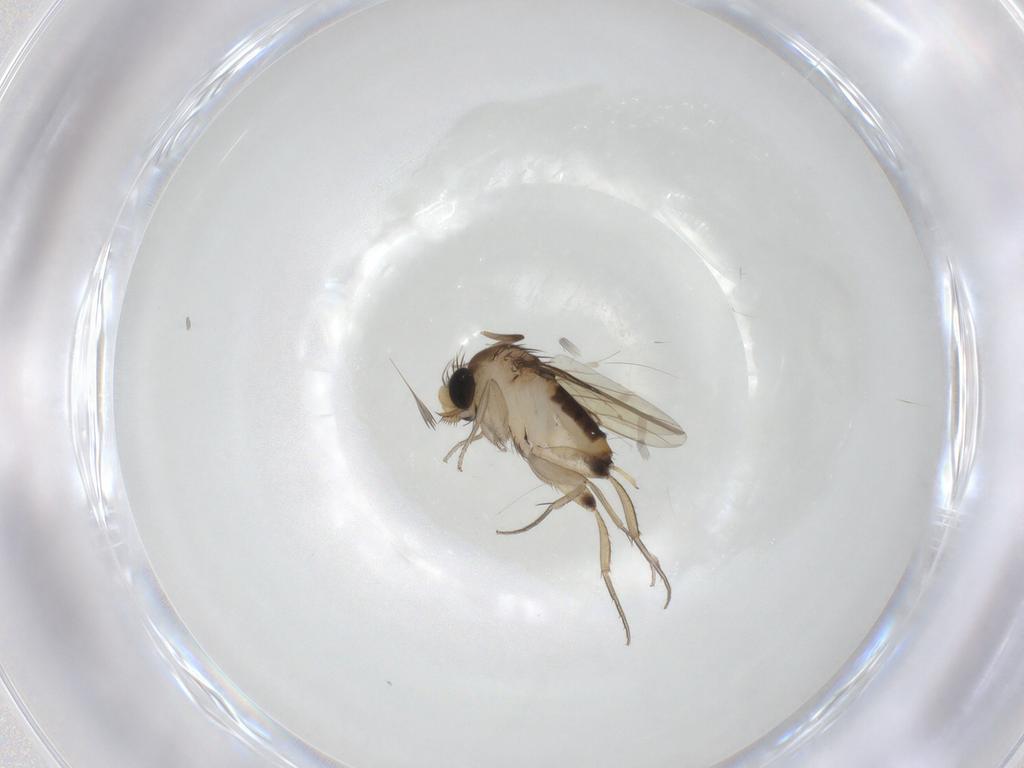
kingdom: Animalia
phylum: Arthropoda
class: Insecta
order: Diptera
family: Phoridae
